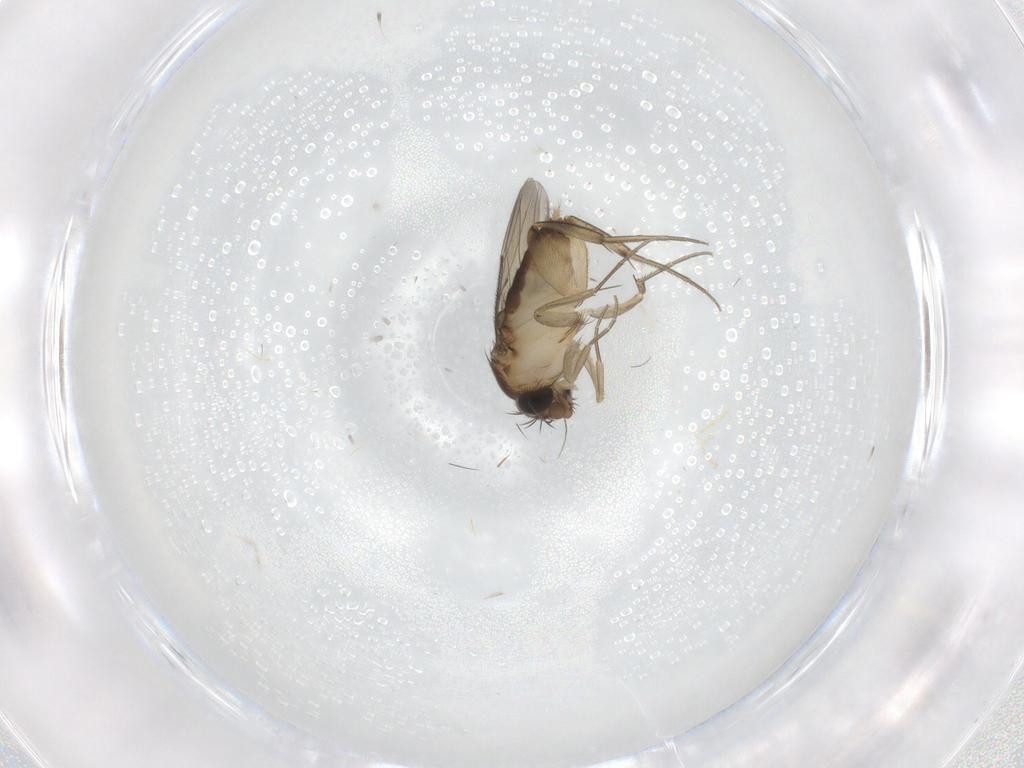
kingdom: Animalia
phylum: Arthropoda
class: Insecta
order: Diptera
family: Phoridae
